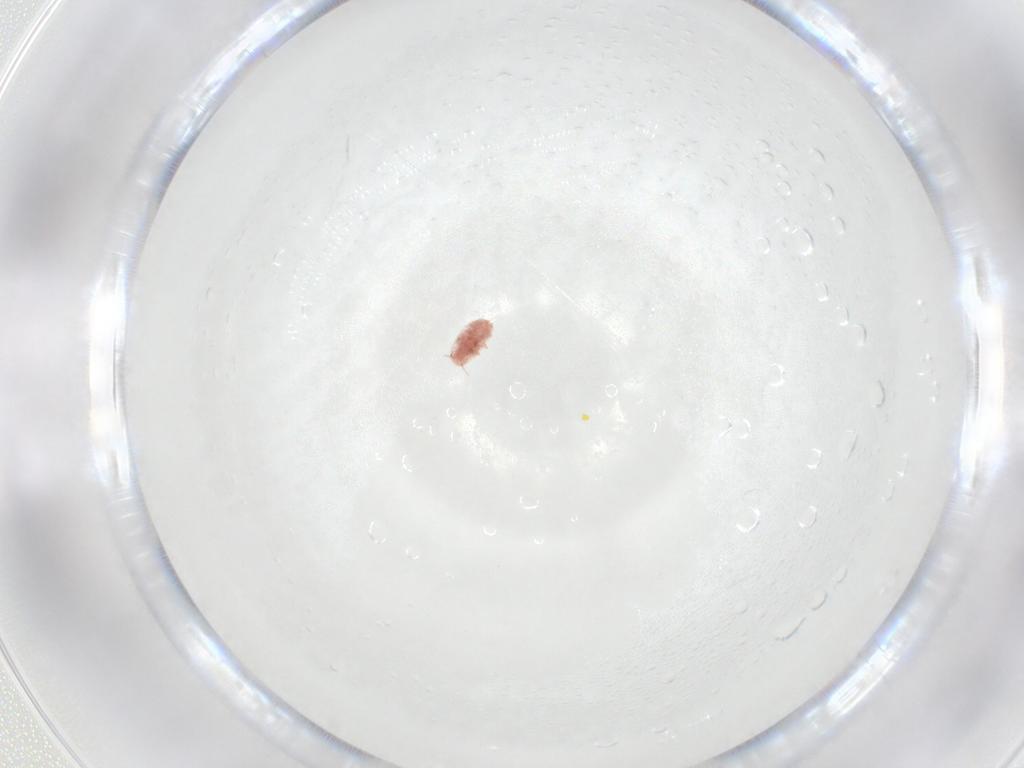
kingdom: Animalia
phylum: Arthropoda
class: Insecta
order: Hemiptera
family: Coccidae
